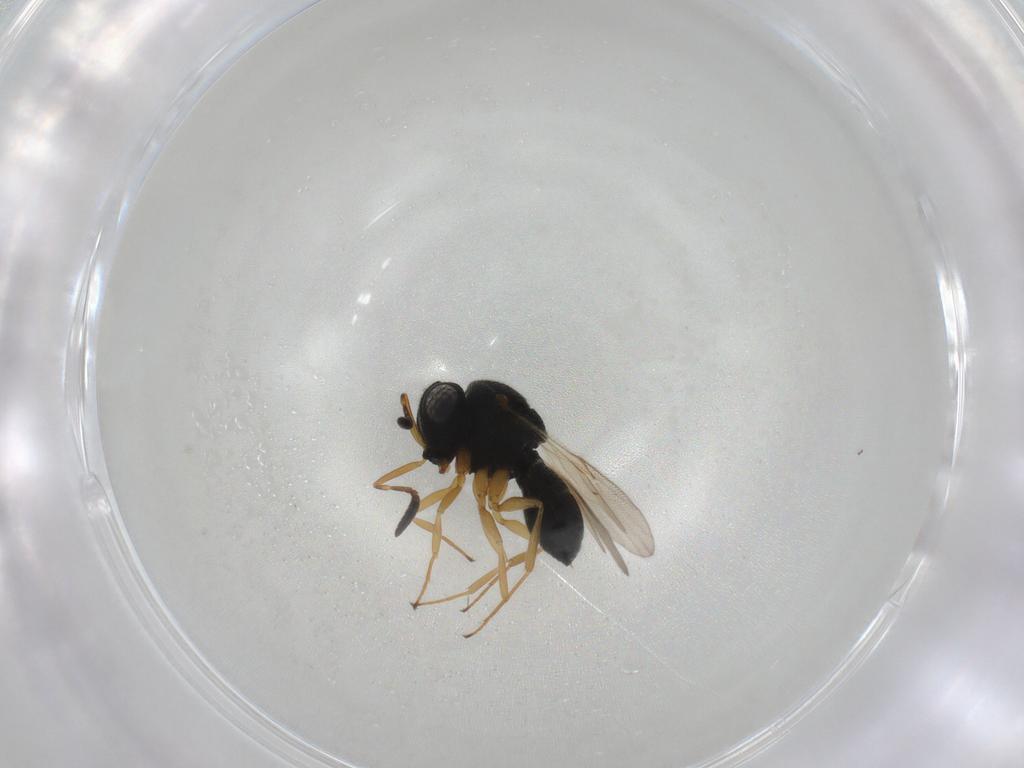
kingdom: Animalia
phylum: Arthropoda
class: Insecta
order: Hymenoptera
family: Scelionidae
